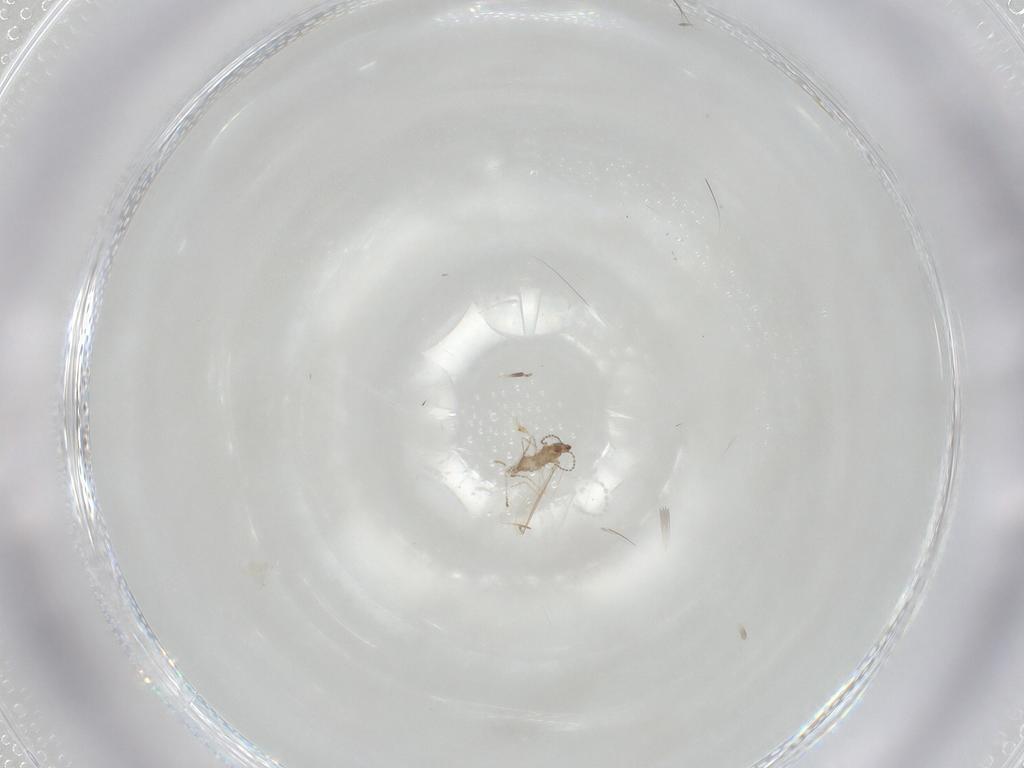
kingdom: Animalia
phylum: Arthropoda
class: Insecta
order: Diptera
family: Cecidomyiidae
